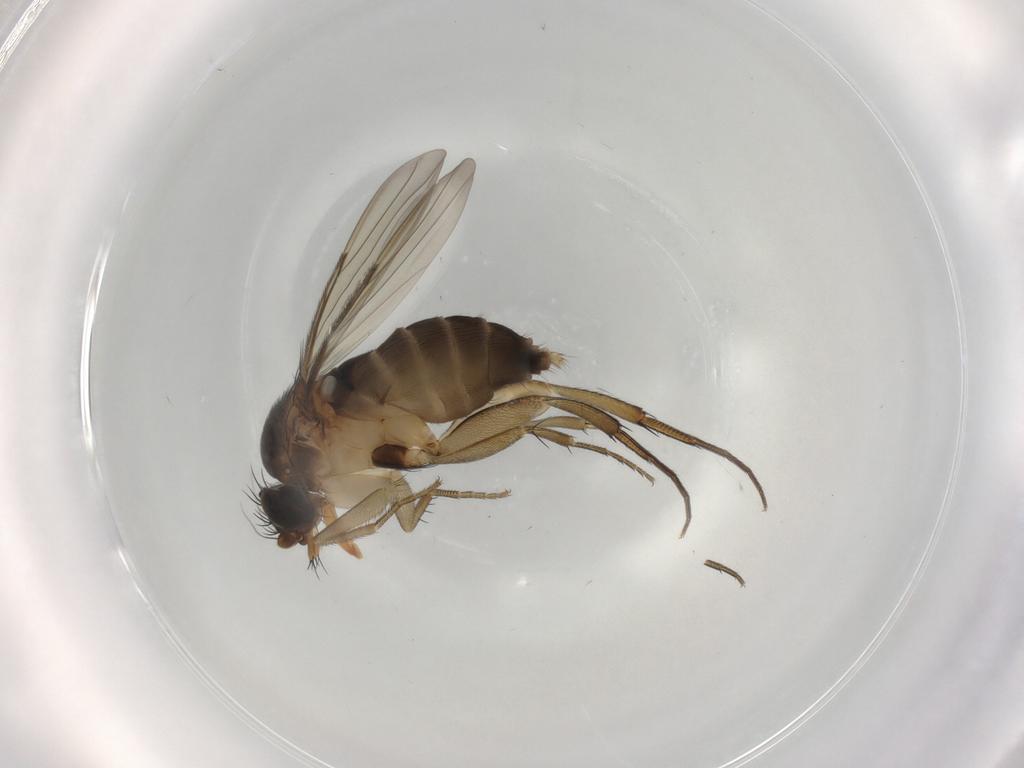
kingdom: Animalia
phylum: Arthropoda
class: Insecta
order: Diptera
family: Phoridae
